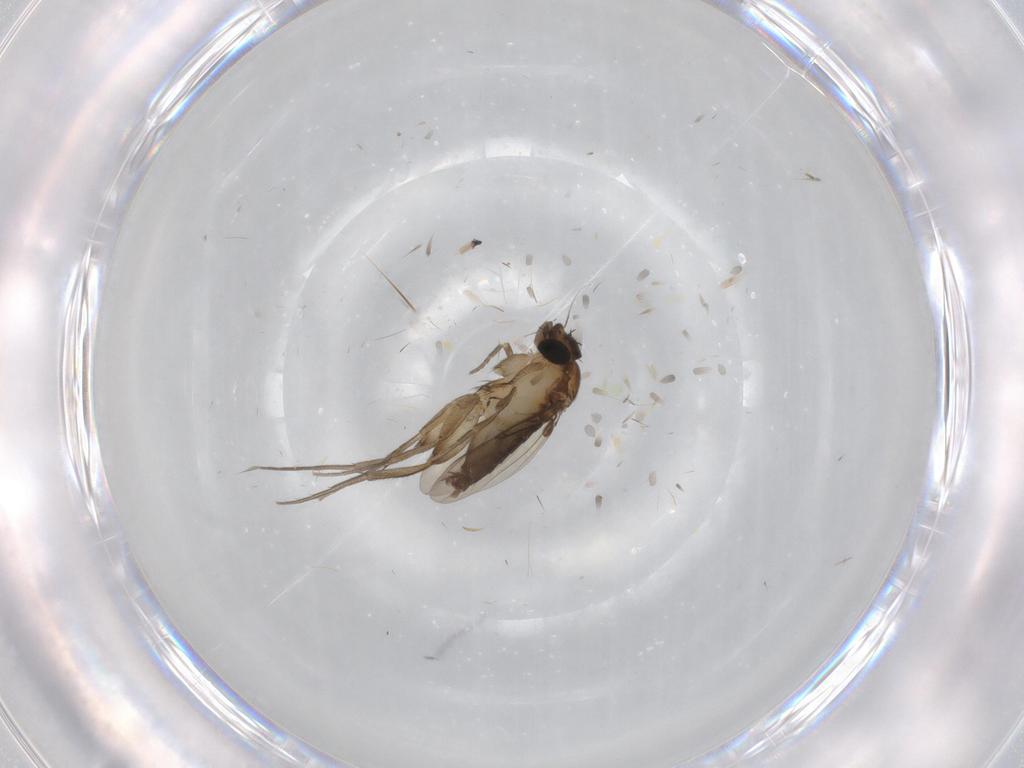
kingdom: Animalia
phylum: Arthropoda
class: Insecta
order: Diptera
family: Phoridae
